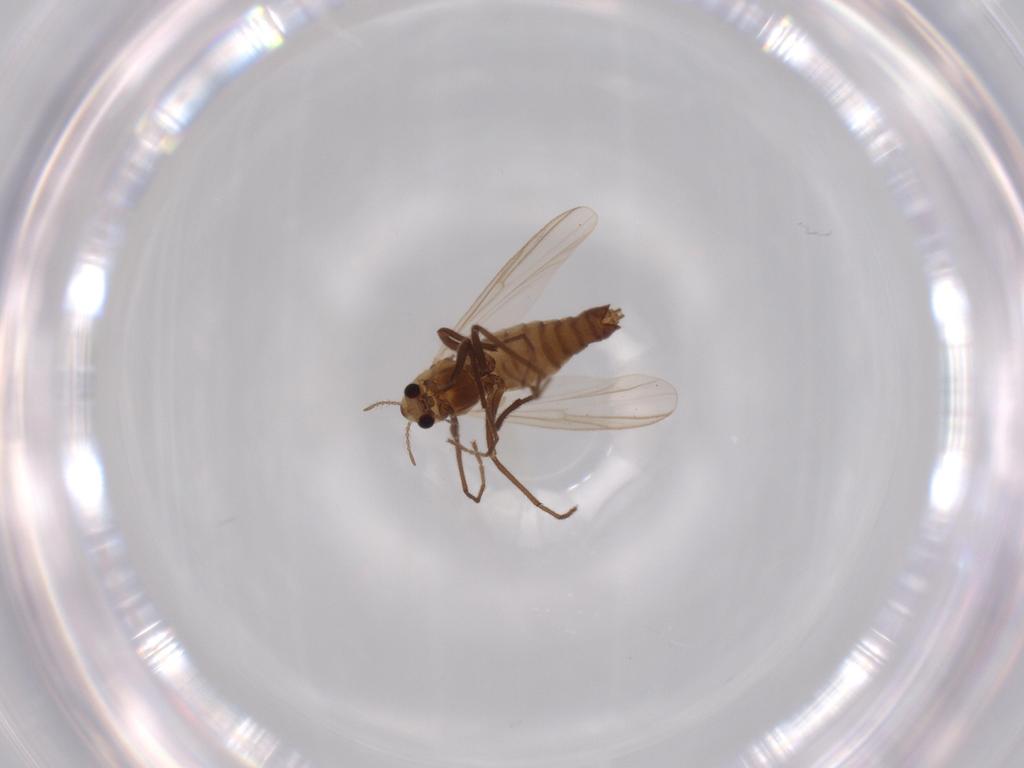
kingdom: Animalia
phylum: Arthropoda
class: Insecta
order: Diptera
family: Chironomidae
